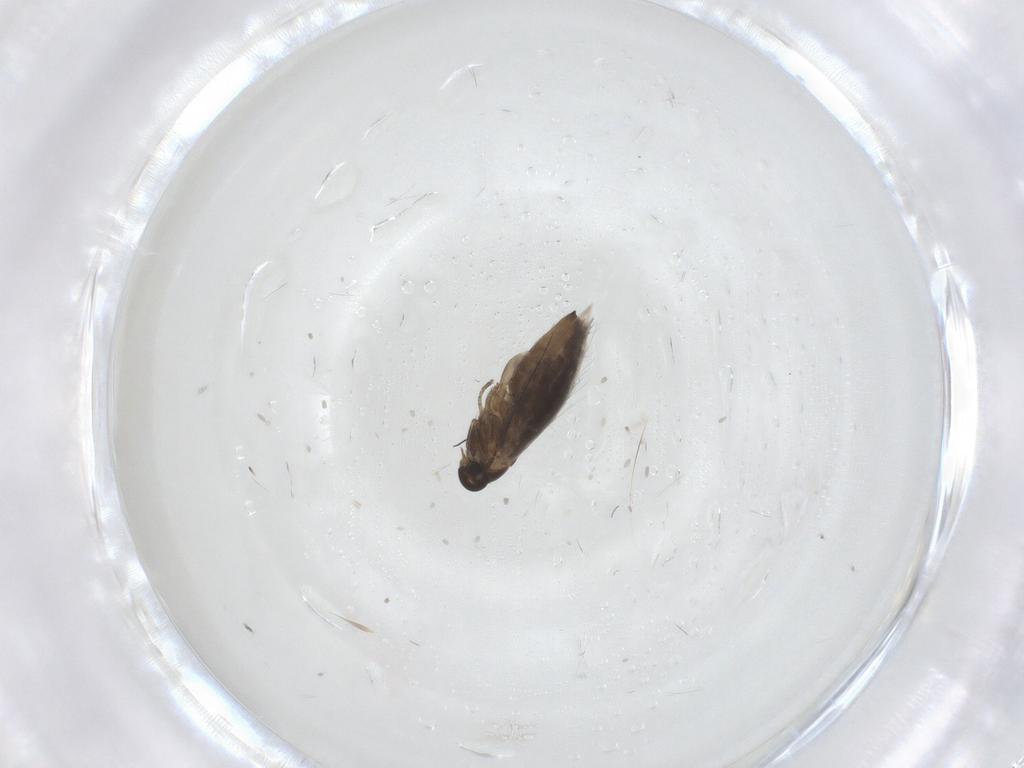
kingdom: Animalia
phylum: Arthropoda
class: Insecta
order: Lepidoptera
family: Heliozelidae
